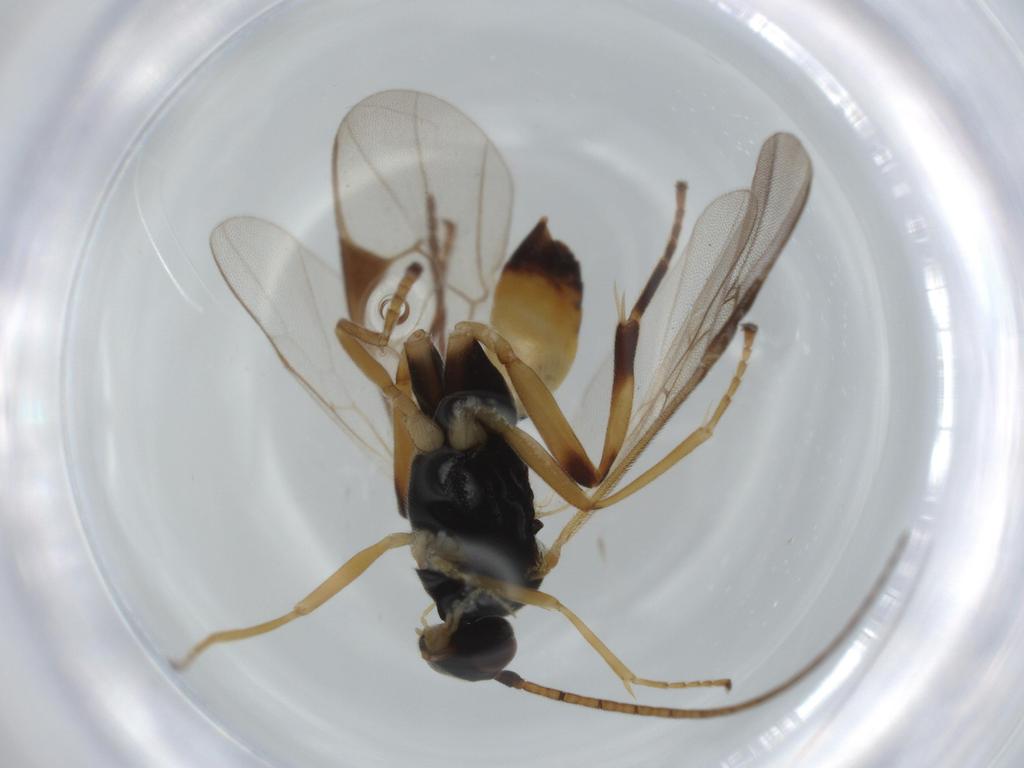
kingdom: Animalia
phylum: Arthropoda
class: Insecta
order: Hymenoptera
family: Braconidae
